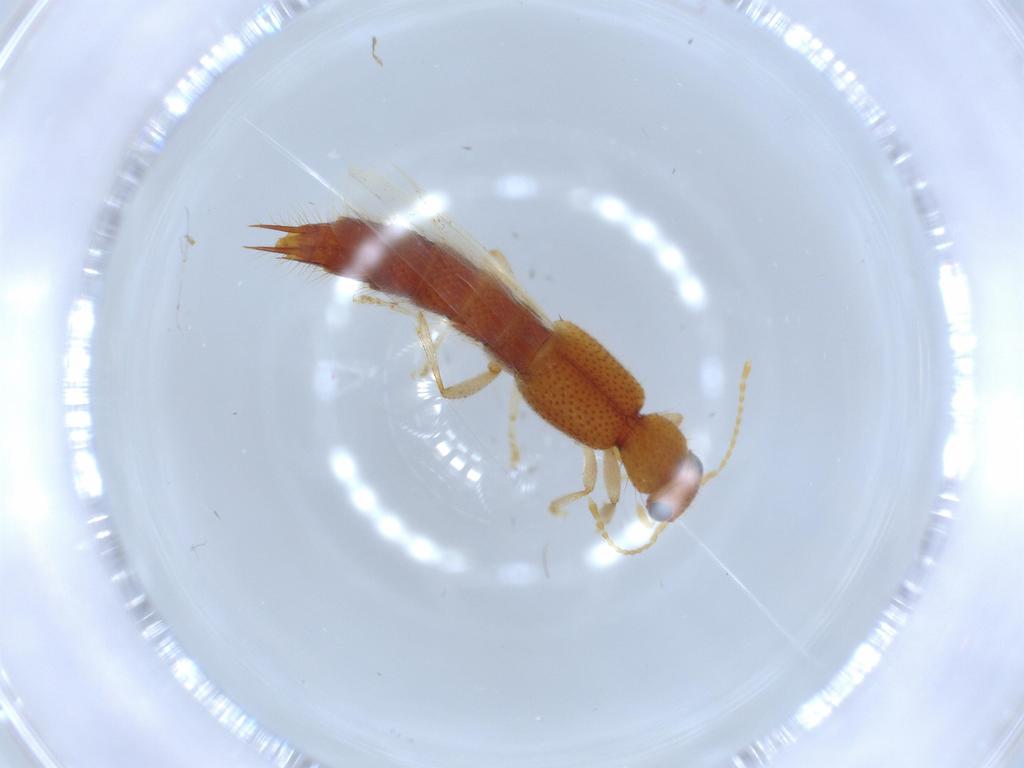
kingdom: Animalia
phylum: Arthropoda
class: Insecta
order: Coleoptera
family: Staphylinidae
